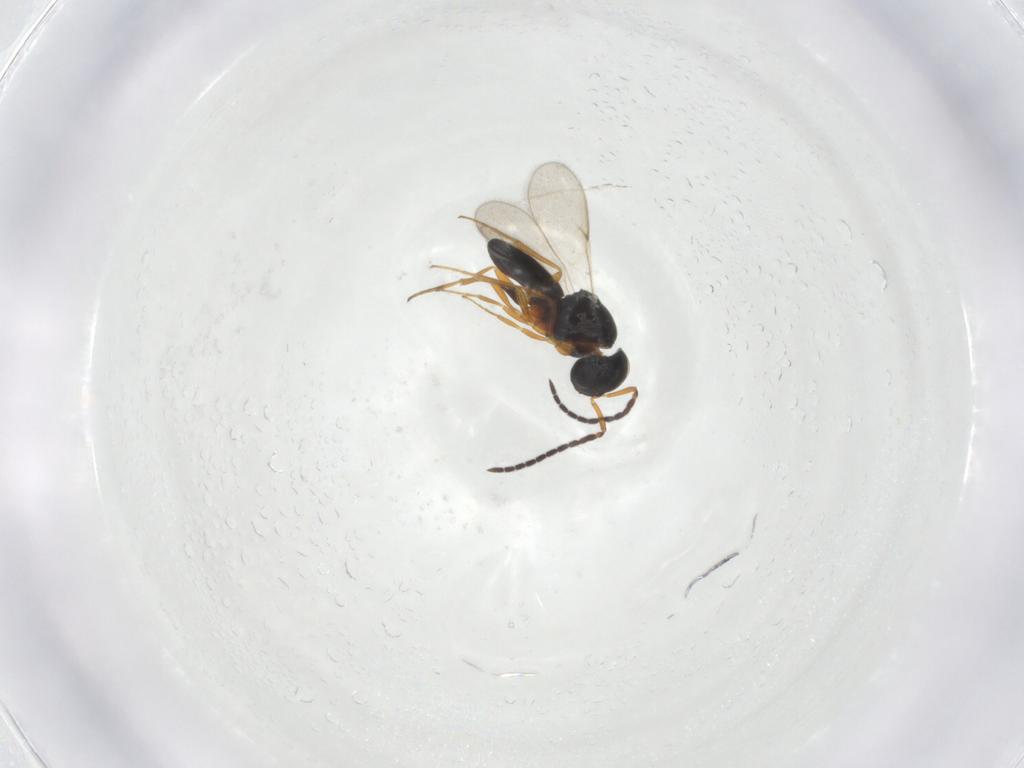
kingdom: Animalia
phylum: Arthropoda
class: Insecta
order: Hymenoptera
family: Scelionidae
